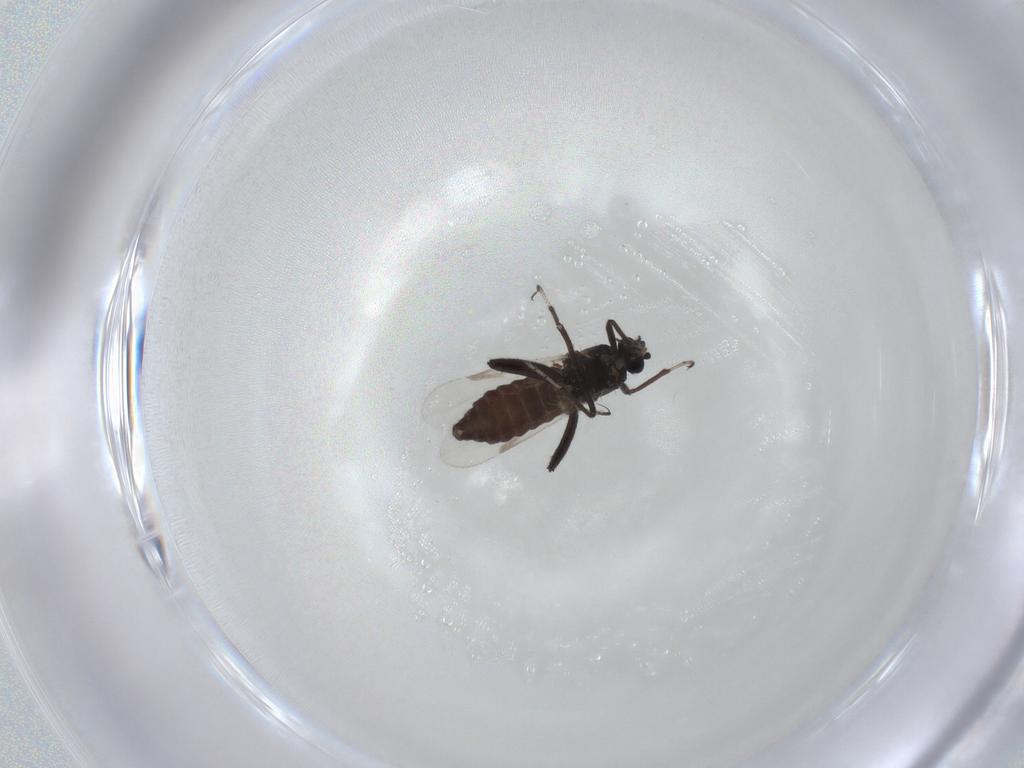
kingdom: Animalia
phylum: Arthropoda
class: Insecta
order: Diptera
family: Ceratopogonidae
